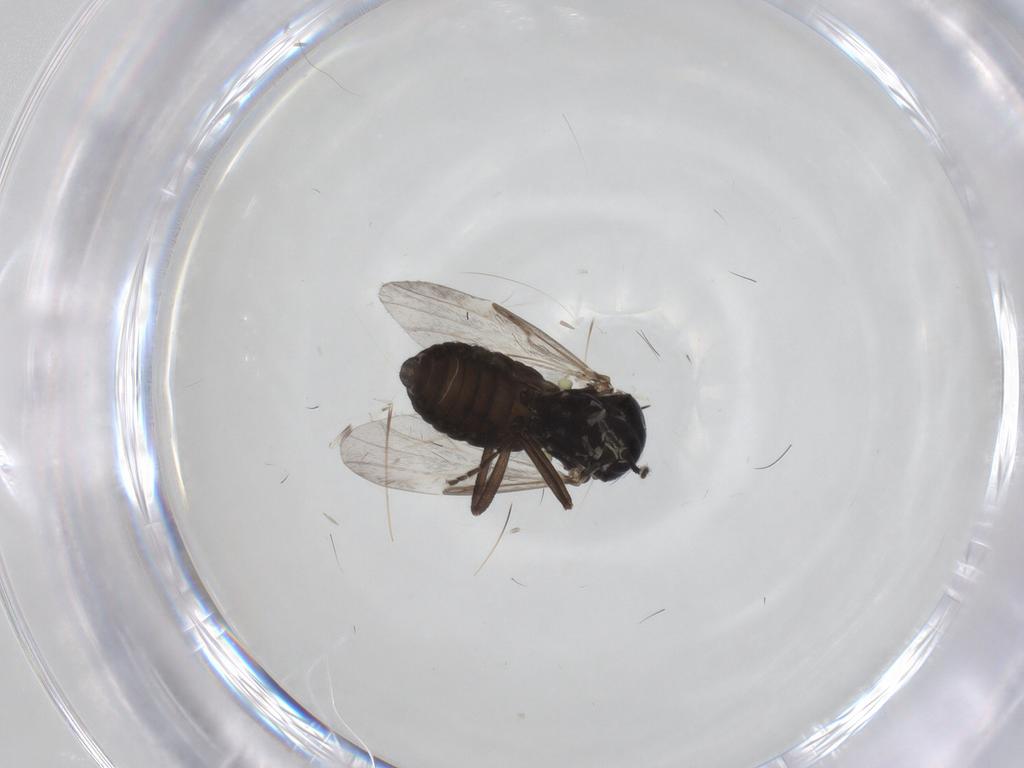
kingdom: Animalia
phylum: Arthropoda
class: Insecta
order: Diptera
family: Ceratopogonidae
